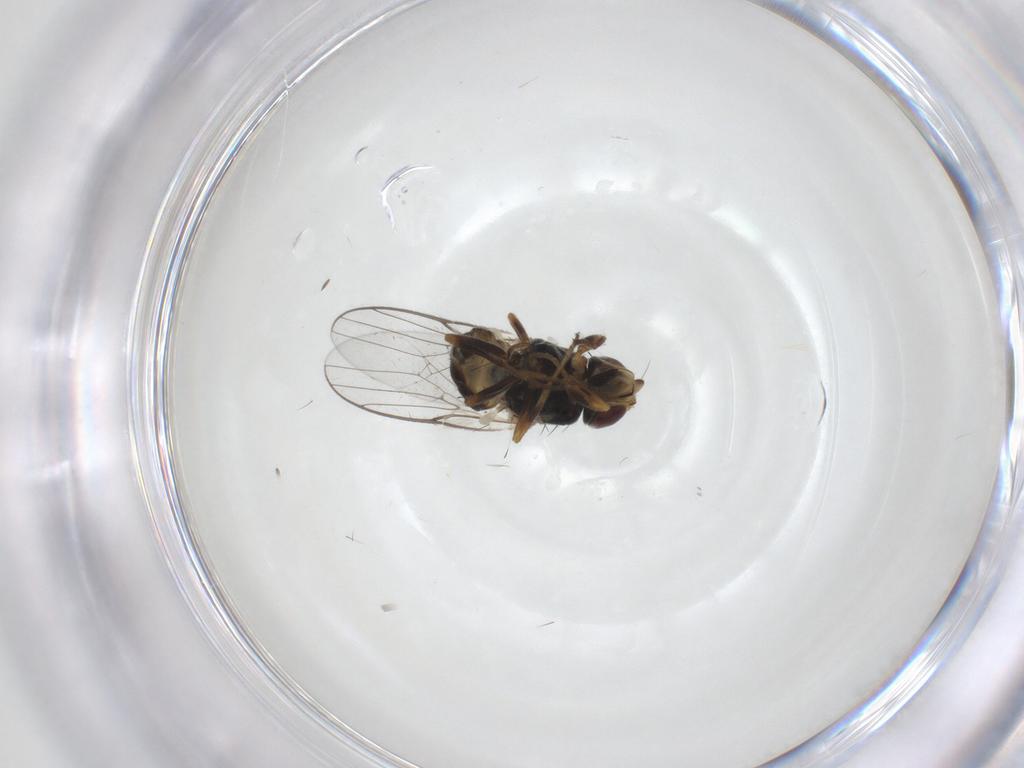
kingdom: Animalia
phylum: Arthropoda
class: Insecta
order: Diptera
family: Chloropidae
